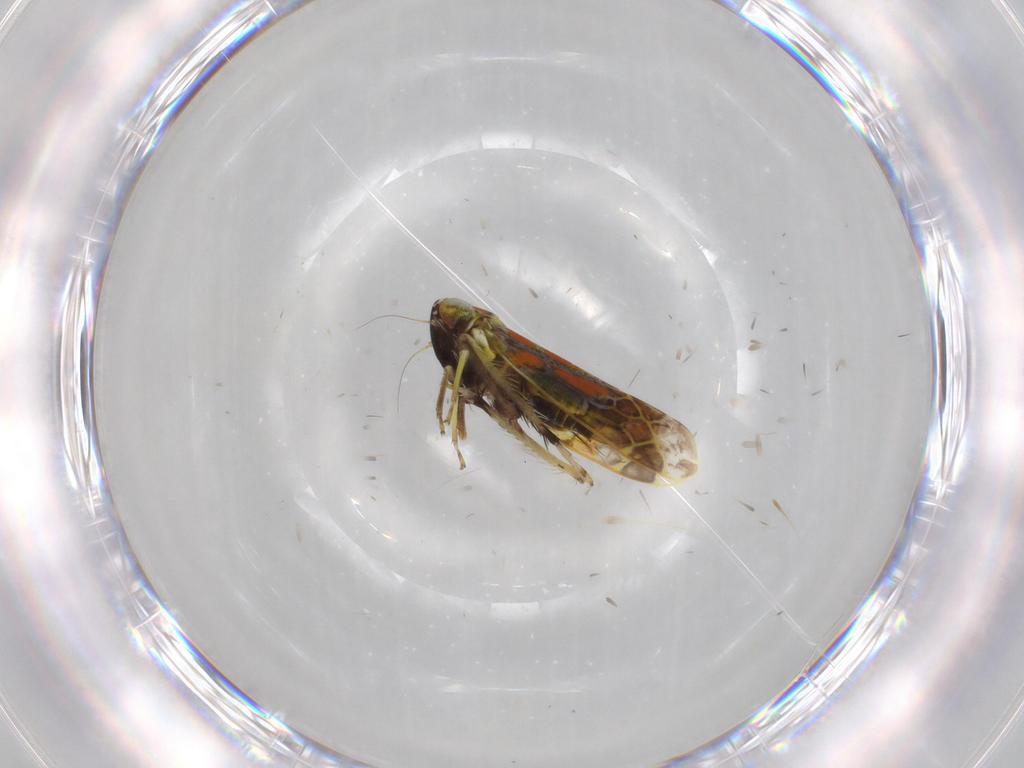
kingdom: Animalia
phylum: Arthropoda
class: Insecta
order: Hemiptera
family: Cicadellidae
